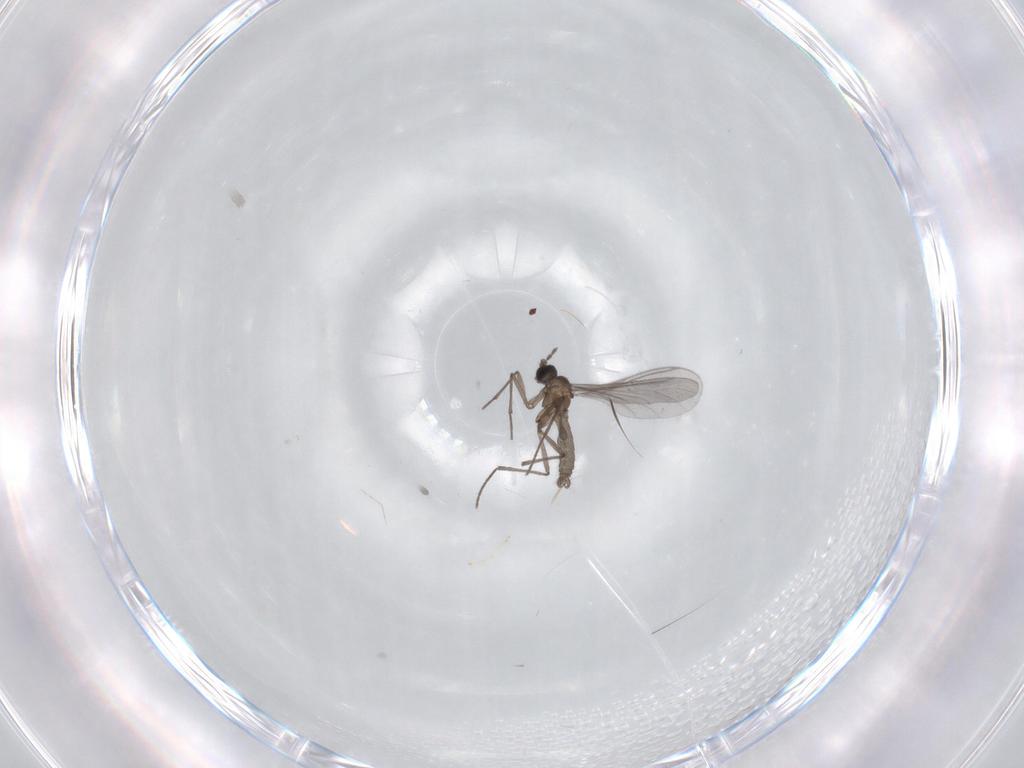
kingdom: Animalia
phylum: Arthropoda
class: Insecta
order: Diptera
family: Sciaridae
